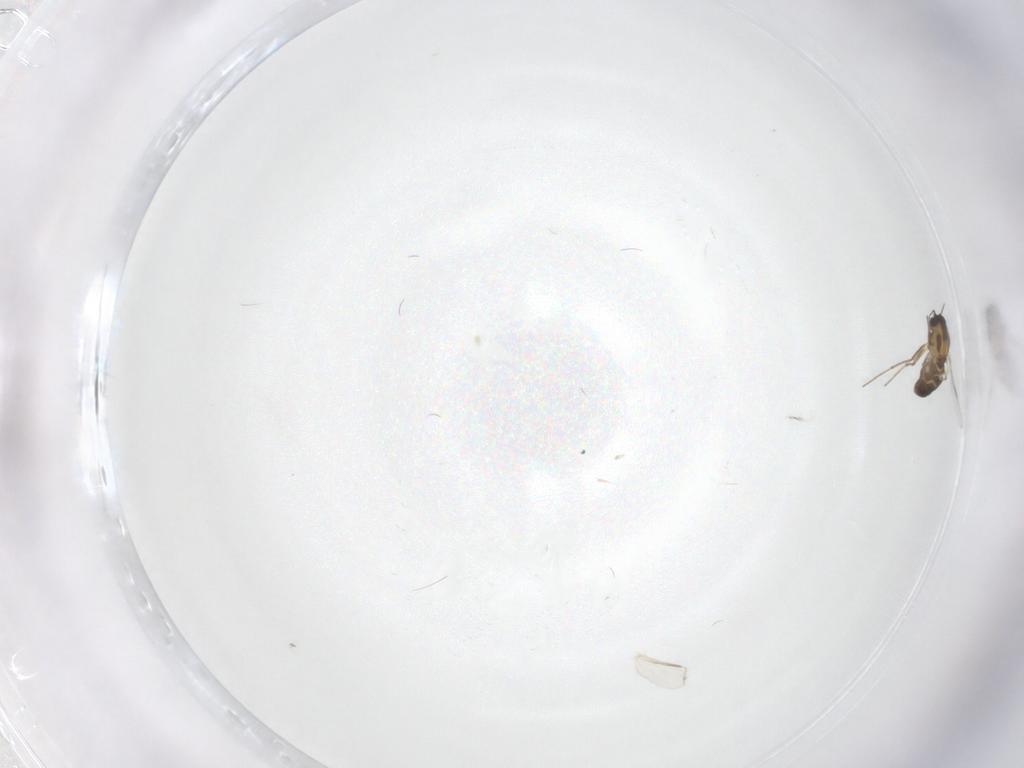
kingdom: Animalia
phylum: Arthropoda
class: Insecta
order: Diptera
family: Chironomidae
